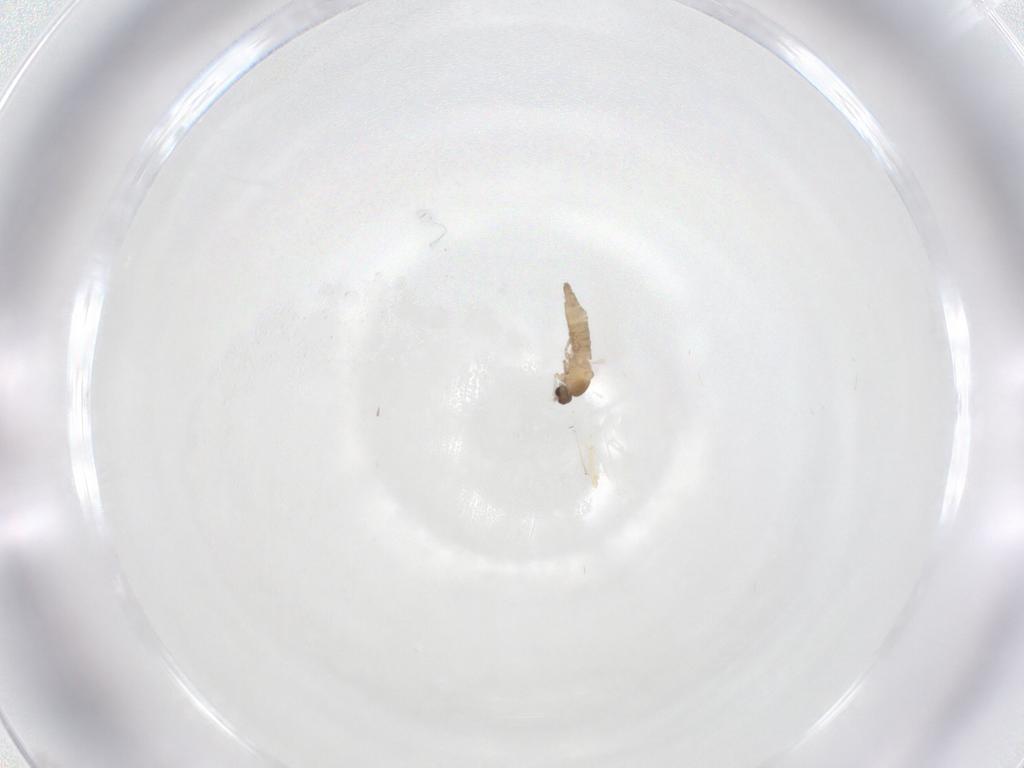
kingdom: Animalia
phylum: Arthropoda
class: Insecta
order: Diptera
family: Cecidomyiidae
